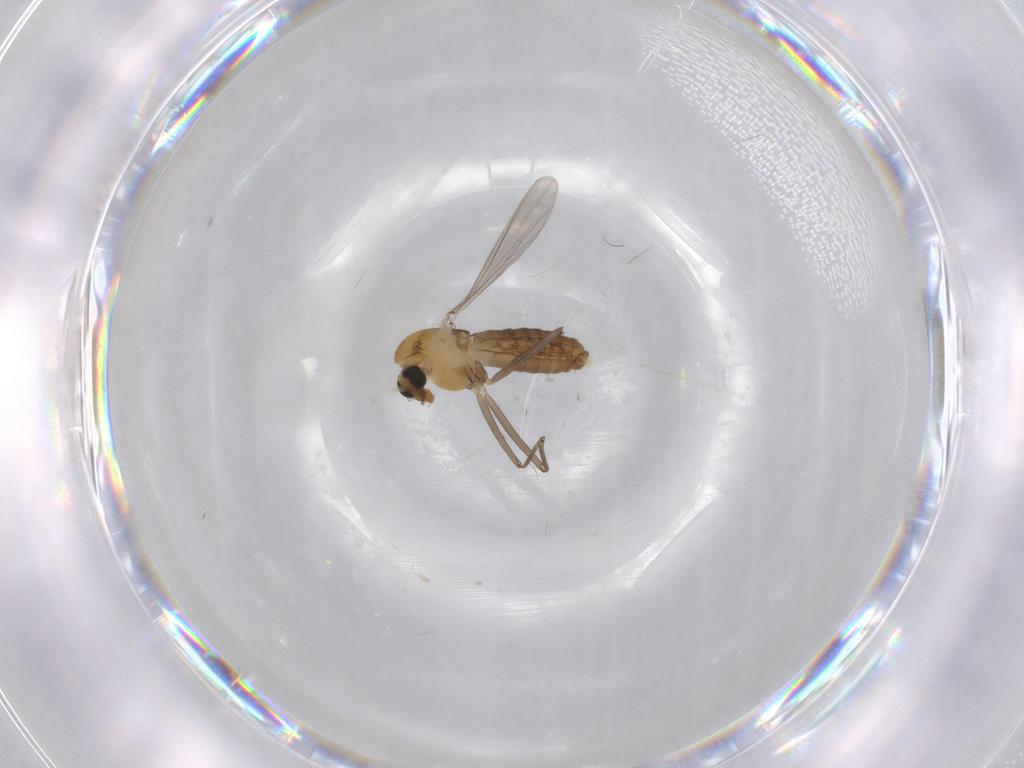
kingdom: Animalia
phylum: Arthropoda
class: Insecta
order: Diptera
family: Chironomidae
